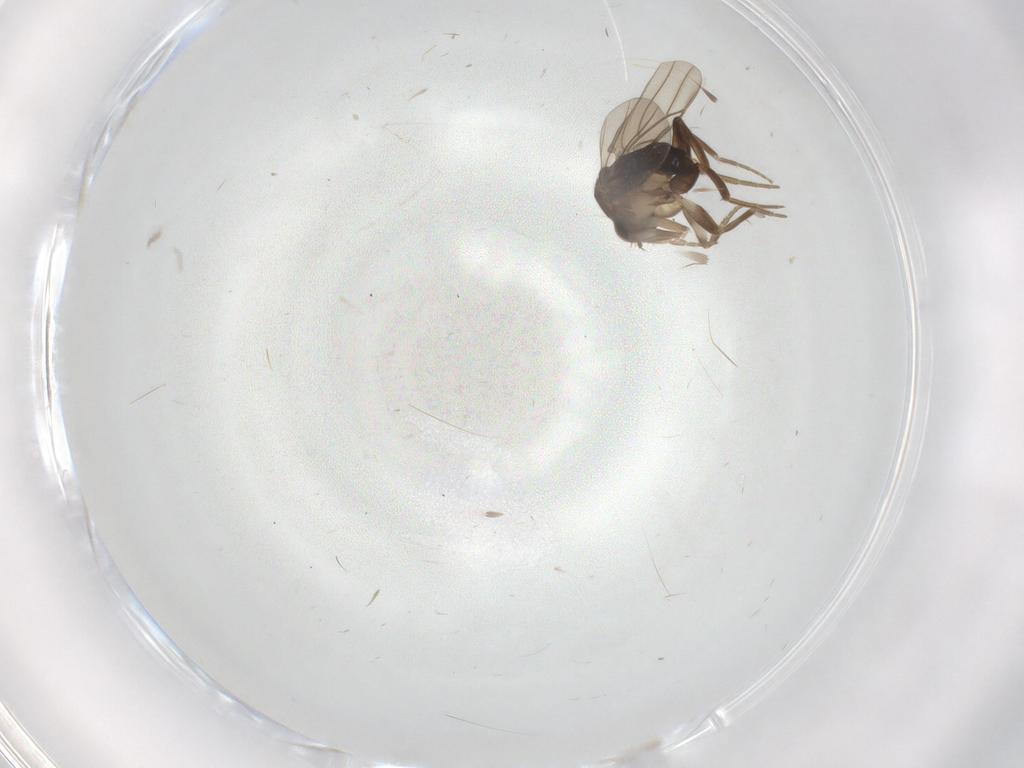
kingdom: Animalia
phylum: Arthropoda
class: Insecta
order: Diptera
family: Phoridae
